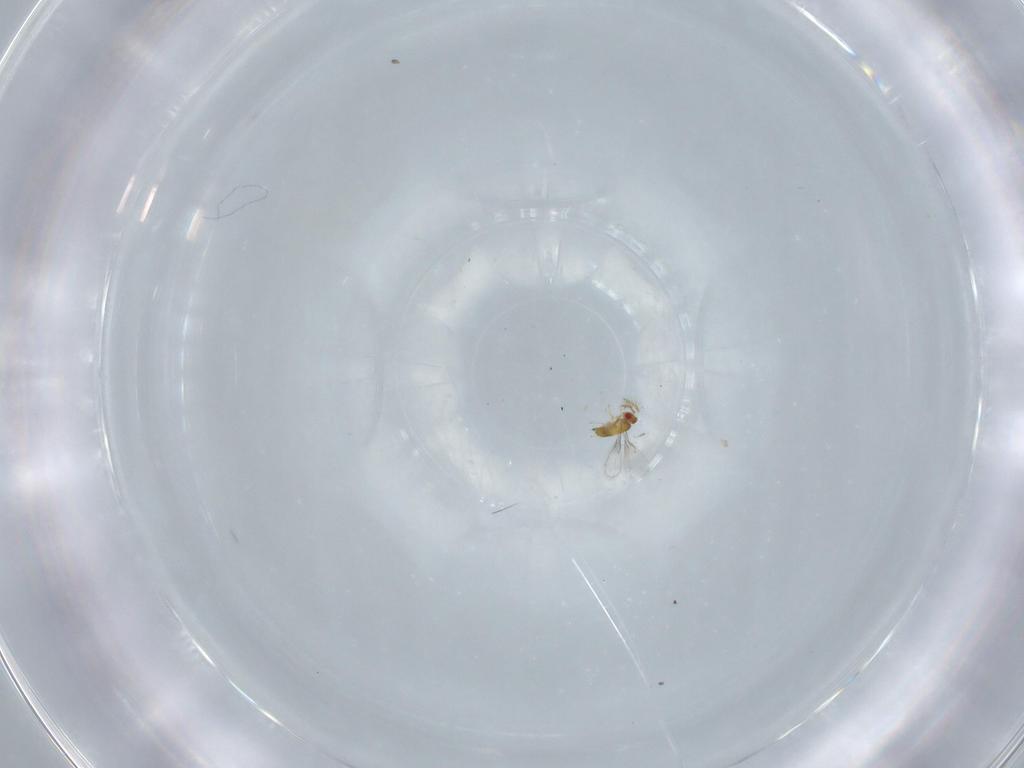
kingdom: Animalia
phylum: Arthropoda
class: Insecta
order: Hymenoptera
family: Trichogrammatidae
